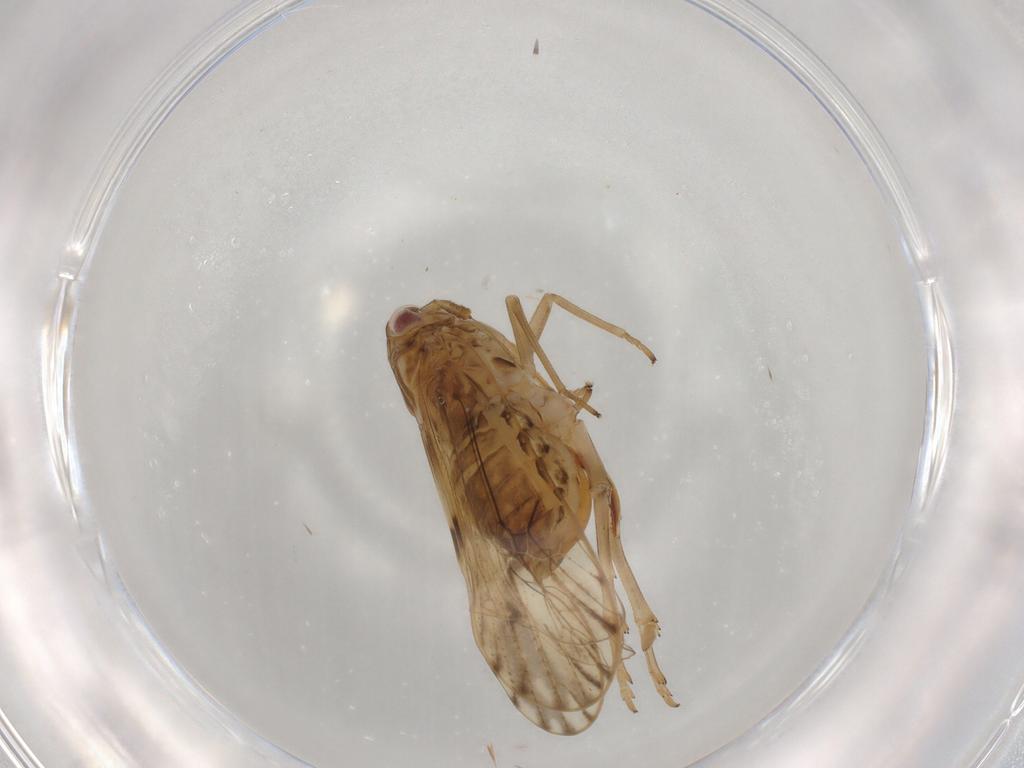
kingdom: Animalia
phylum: Arthropoda
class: Insecta
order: Hemiptera
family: Delphacidae
